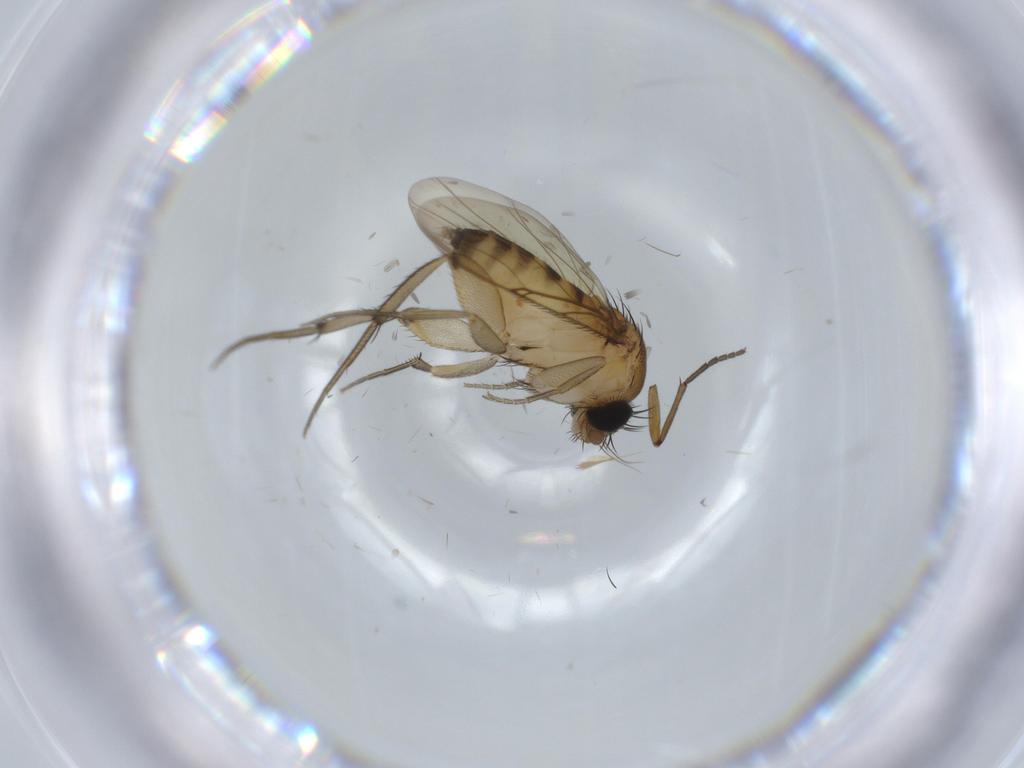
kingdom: Animalia
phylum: Arthropoda
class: Insecta
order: Diptera
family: Phoridae
